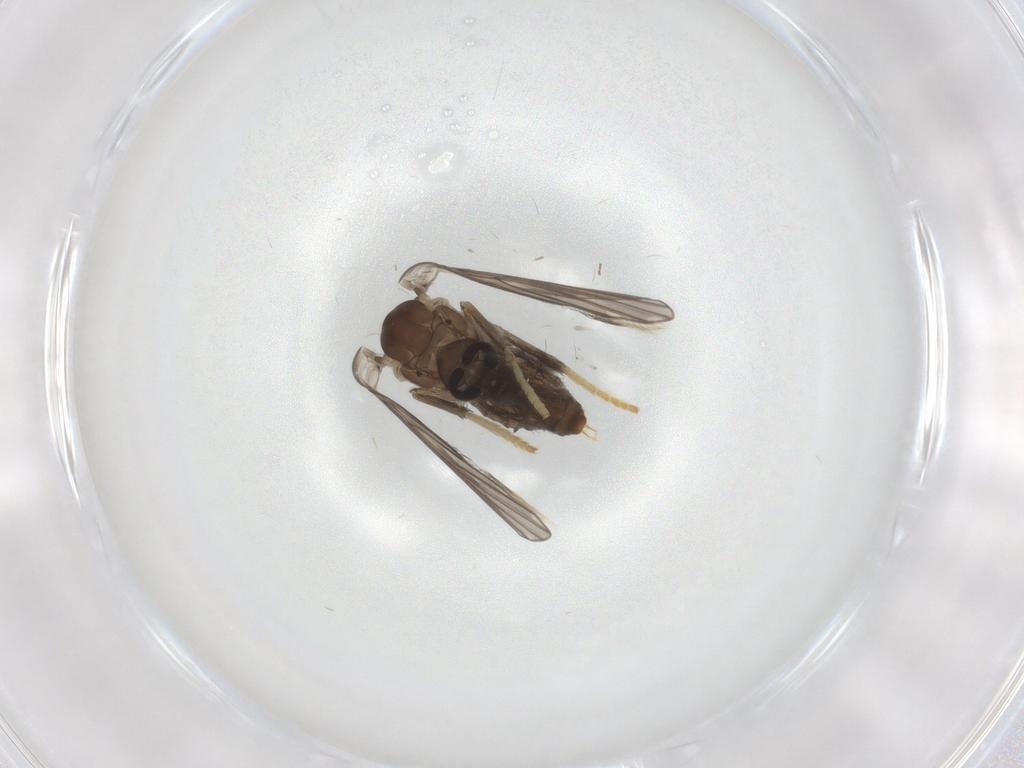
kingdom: Animalia
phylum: Arthropoda
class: Insecta
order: Diptera
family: Psychodidae
